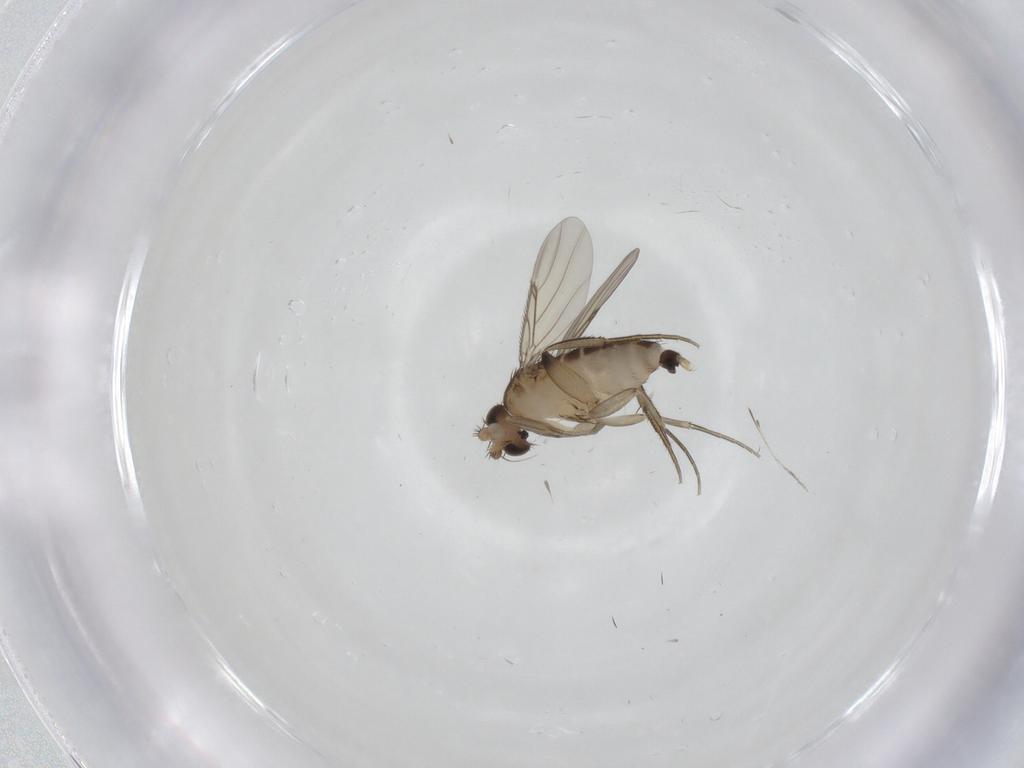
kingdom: Animalia
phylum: Arthropoda
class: Insecta
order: Diptera
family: Phoridae
